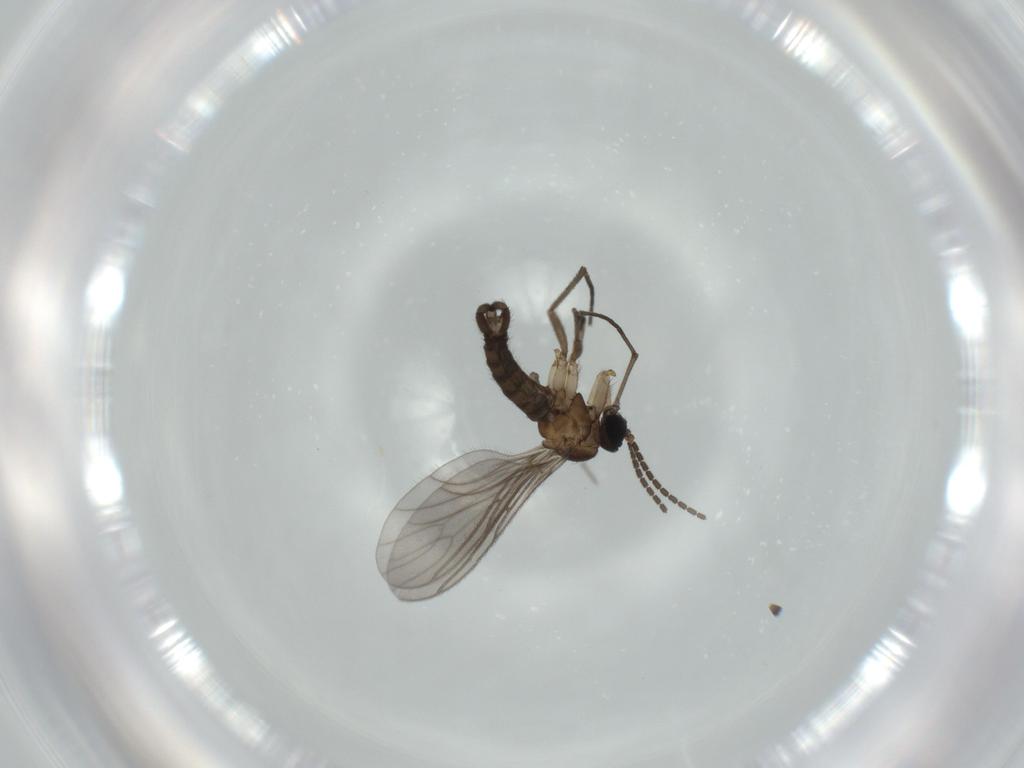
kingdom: Animalia
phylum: Arthropoda
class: Insecta
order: Diptera
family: Sciaridae
